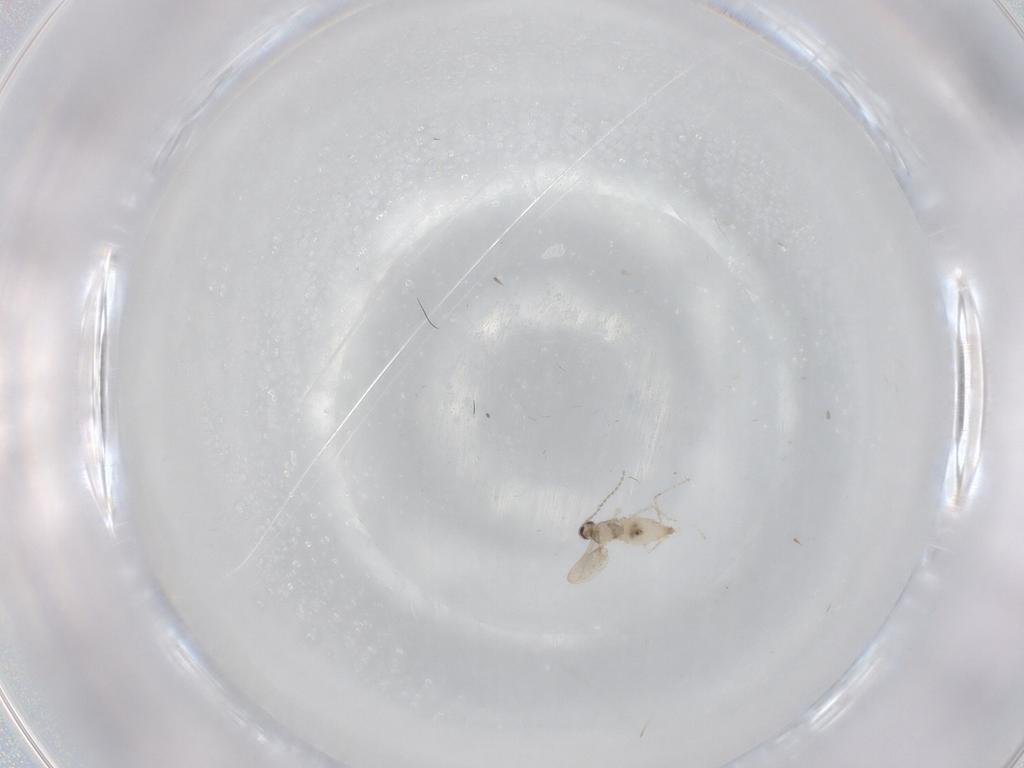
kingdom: Animalia
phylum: Arthropoda
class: Insecta
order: Diptera
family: Cecidomyiidae
